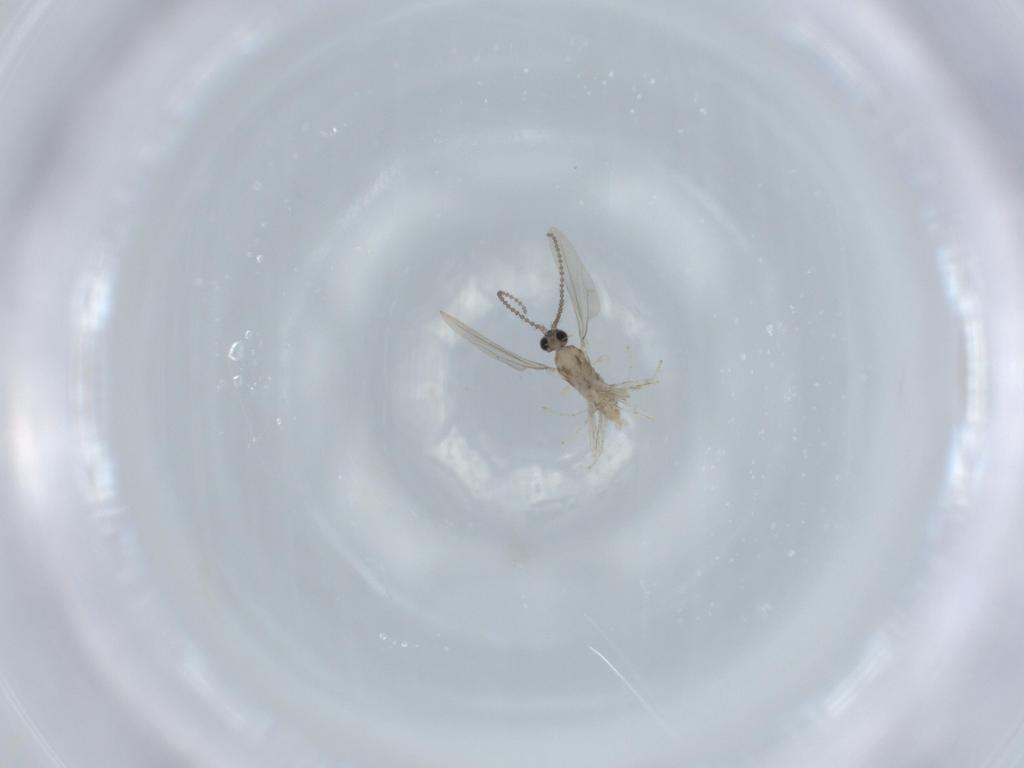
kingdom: Animalia
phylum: Arthropoda
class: Insecta
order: Diptera
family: Cecidomyiidae
